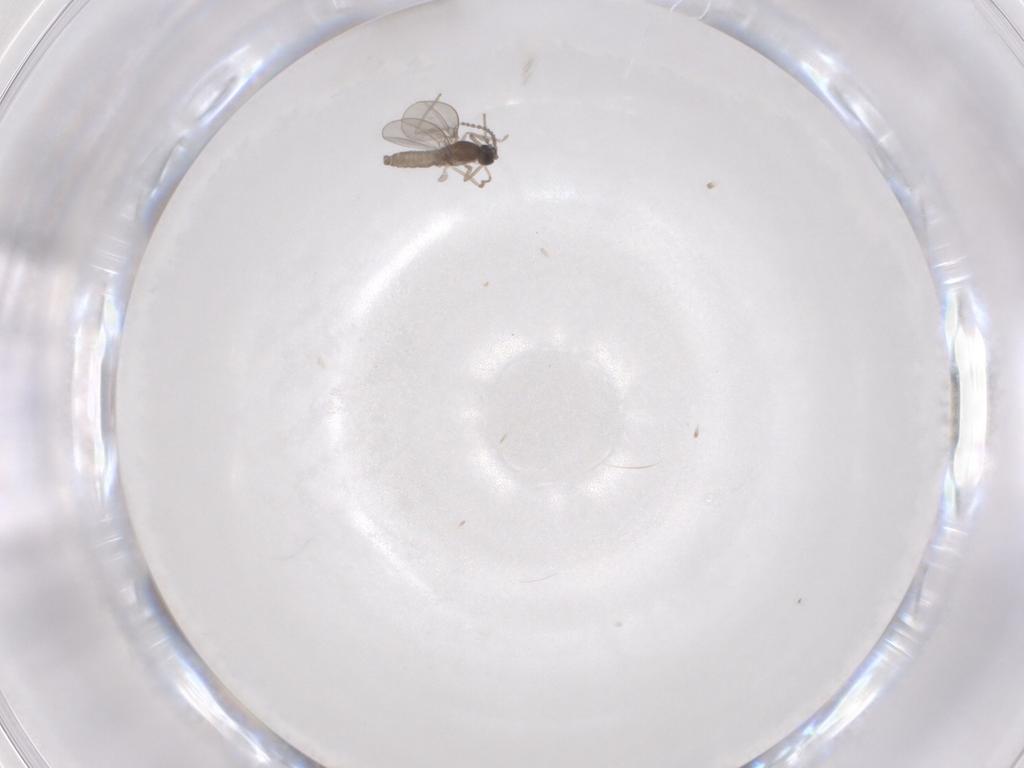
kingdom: Animalia
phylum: Arthropoda
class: Insecta
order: Diptera
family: Cecidomyiidae
